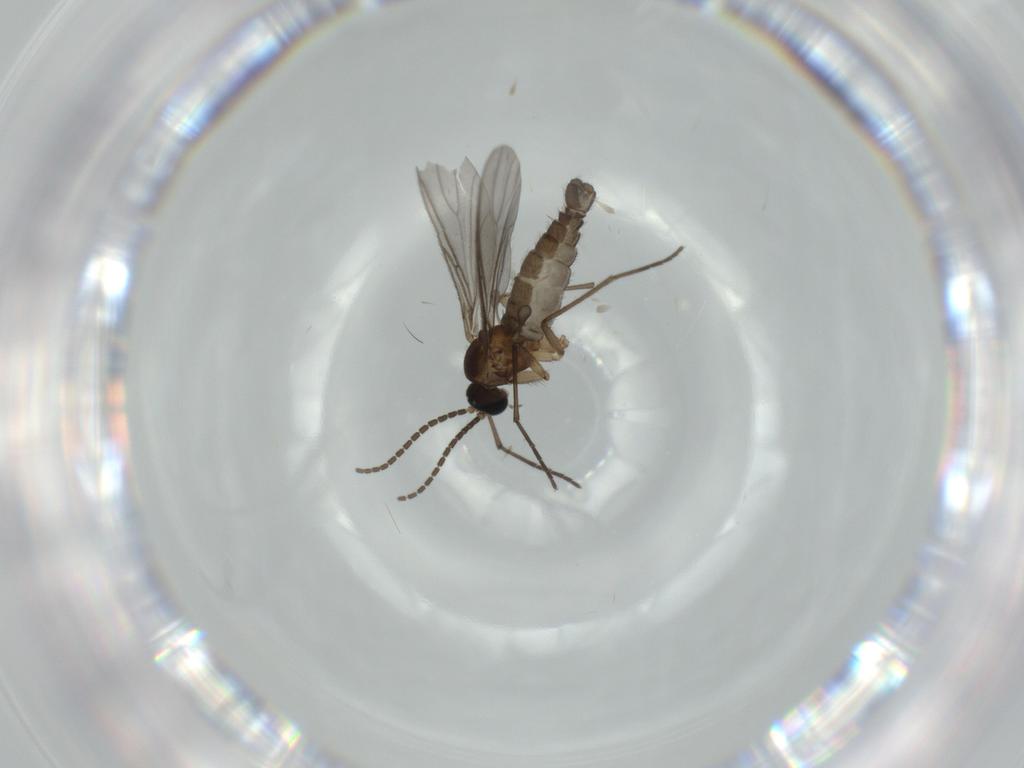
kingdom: Animalia
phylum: Arthropoda
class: Insecta
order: Diptera
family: Sciaridae
